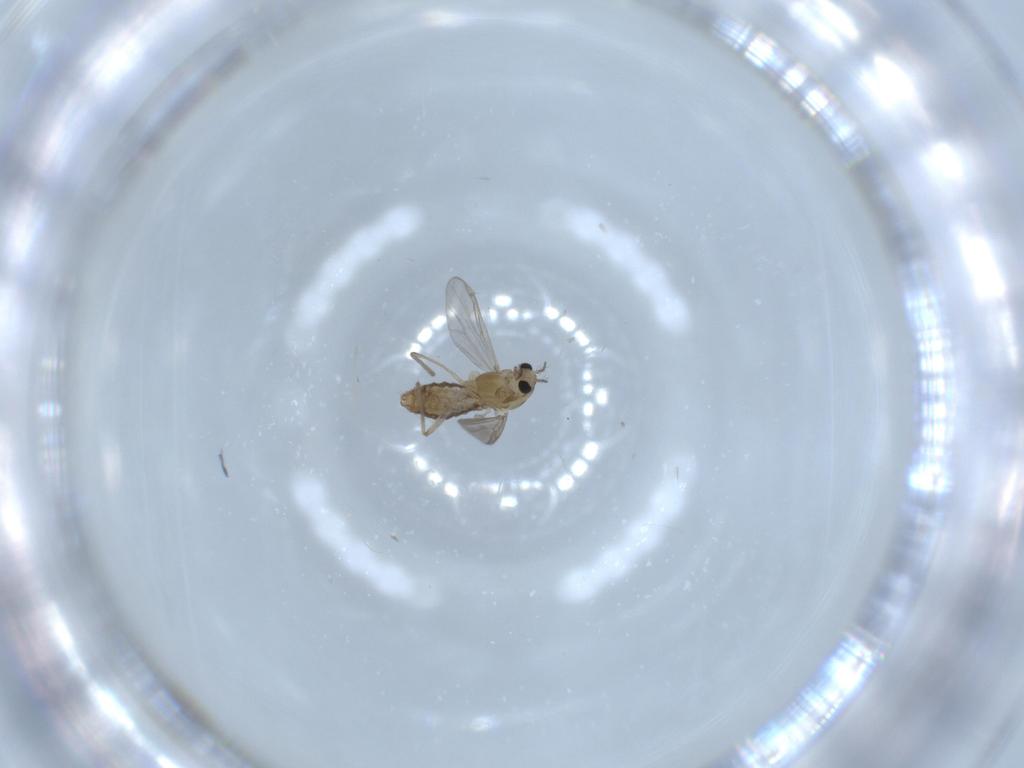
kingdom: Animalia
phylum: Arthropoda
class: Insecta
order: Diptera
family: Chironomidae
